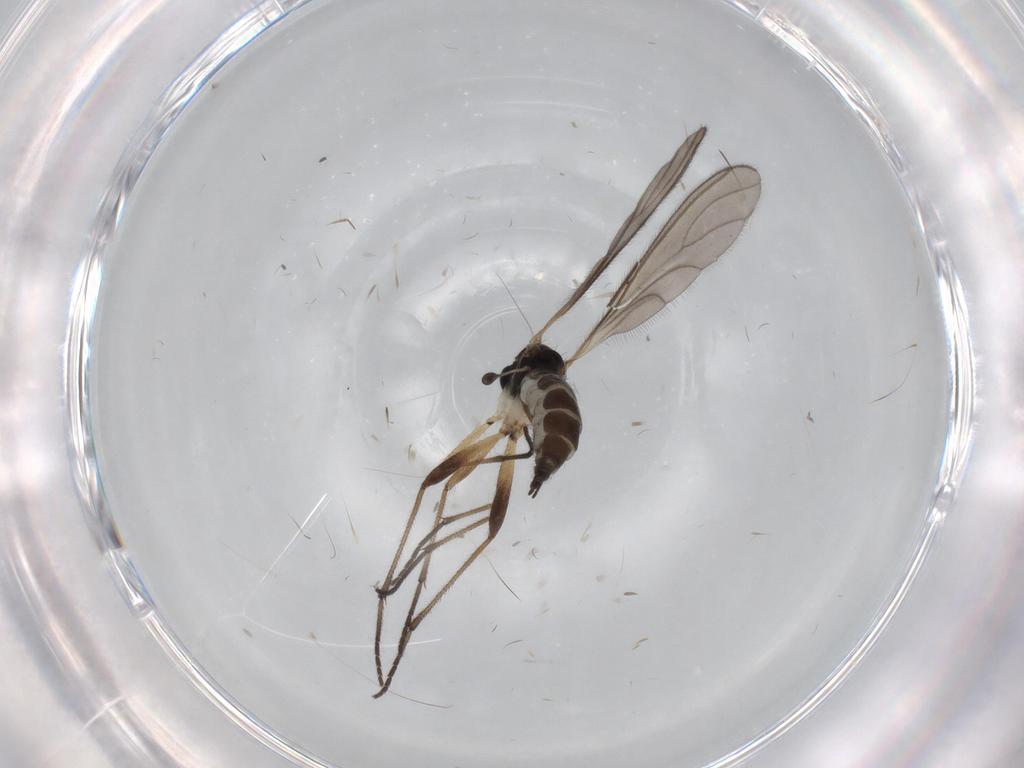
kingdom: Animalia
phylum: Arthropoda
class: Insecta
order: Diptera
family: Sciaridae
